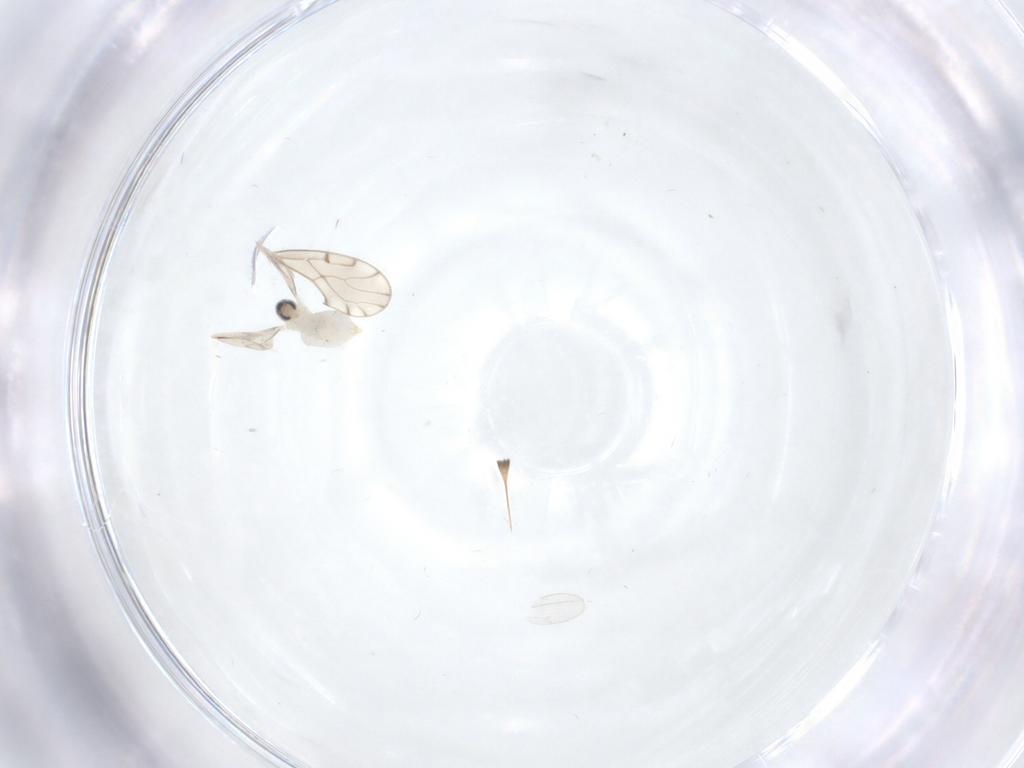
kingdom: Animalia
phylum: Arthropoda
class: Insecta
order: Diptera
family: Cecidomyiidae
